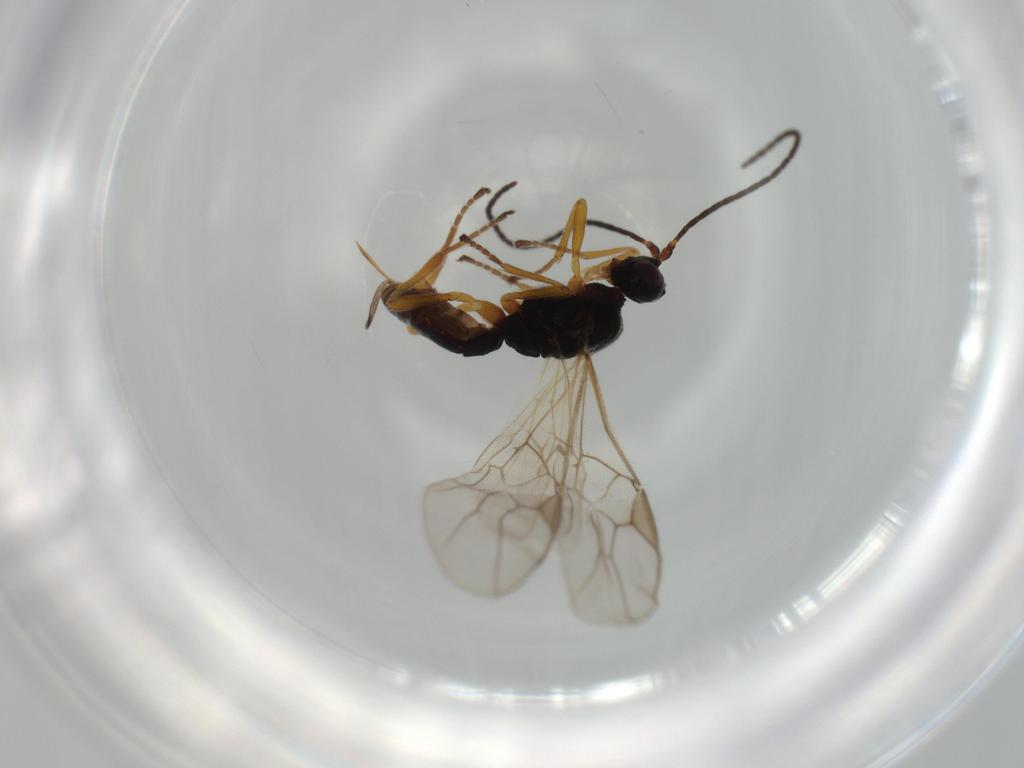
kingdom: Animalia
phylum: Arthropoda
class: Insecta
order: Hymenoptera
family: Braconidae
